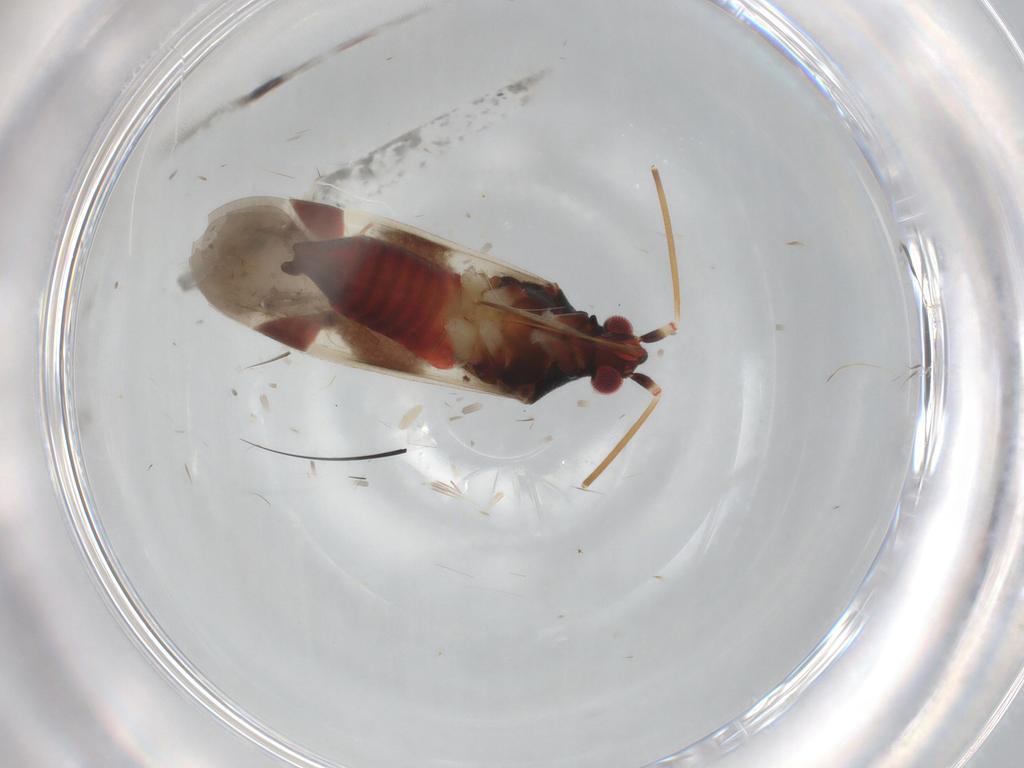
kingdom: Animalia
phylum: Arthropoda
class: Insecta
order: Hemiptera
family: Miridae
